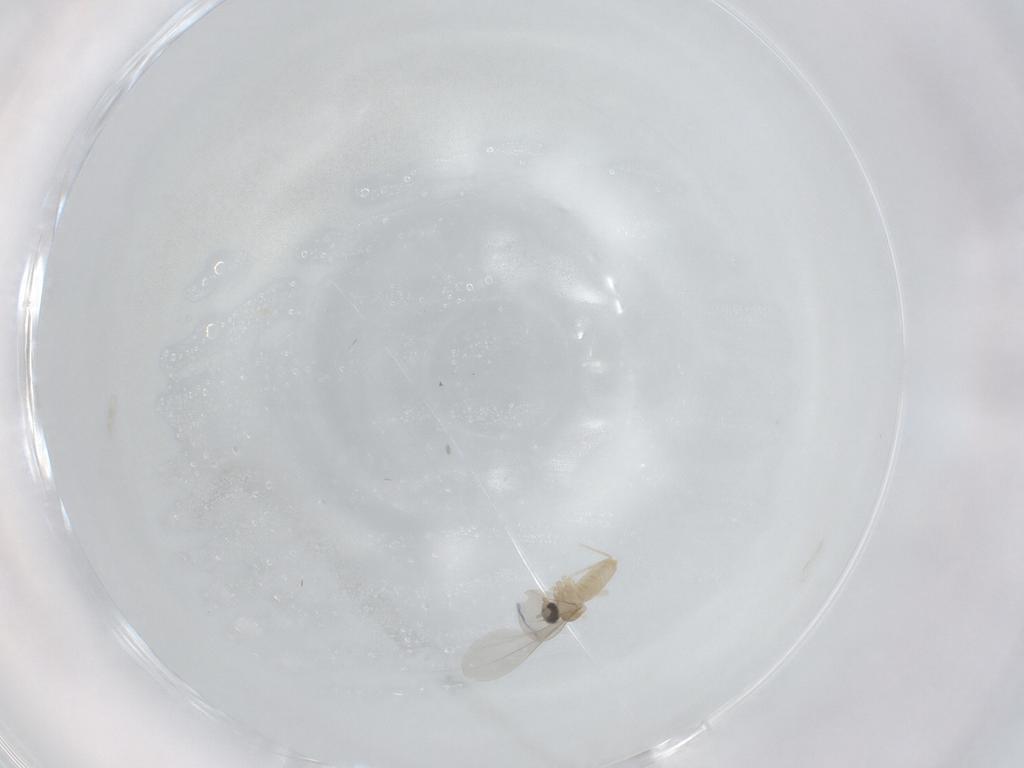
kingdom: Animalia
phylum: Arthropoda
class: Insecta
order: Diptera
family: Cecidomyiidae
